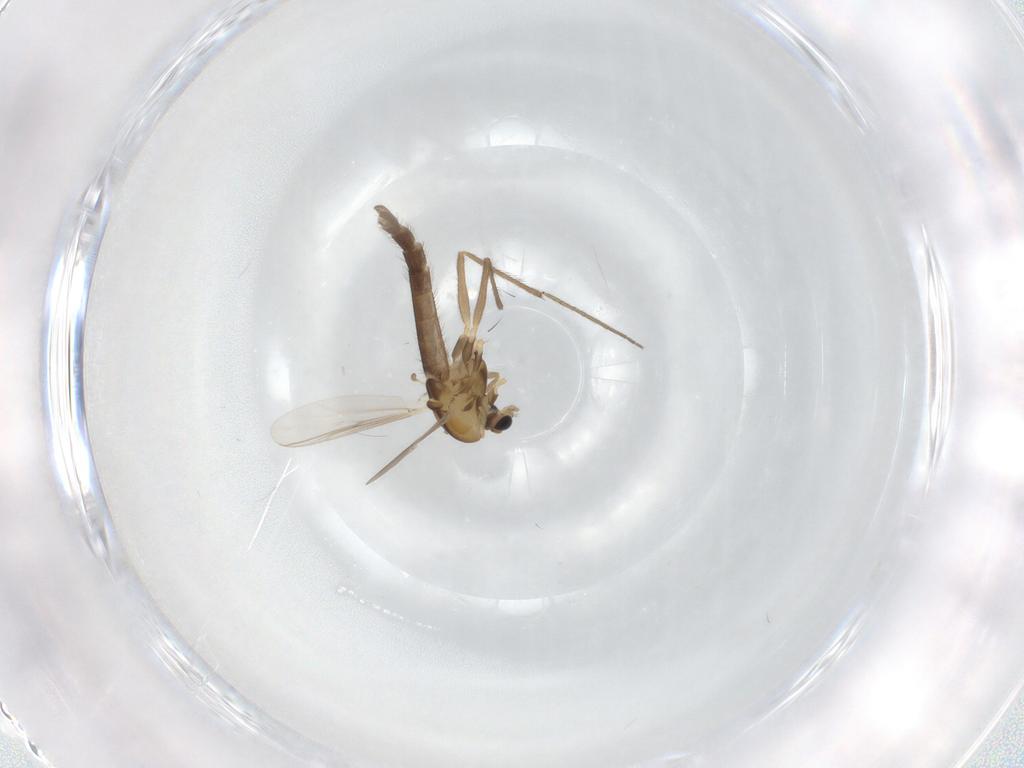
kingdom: Animalia
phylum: Arthropoda
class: Insecta
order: Diptera
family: Chironomidae
